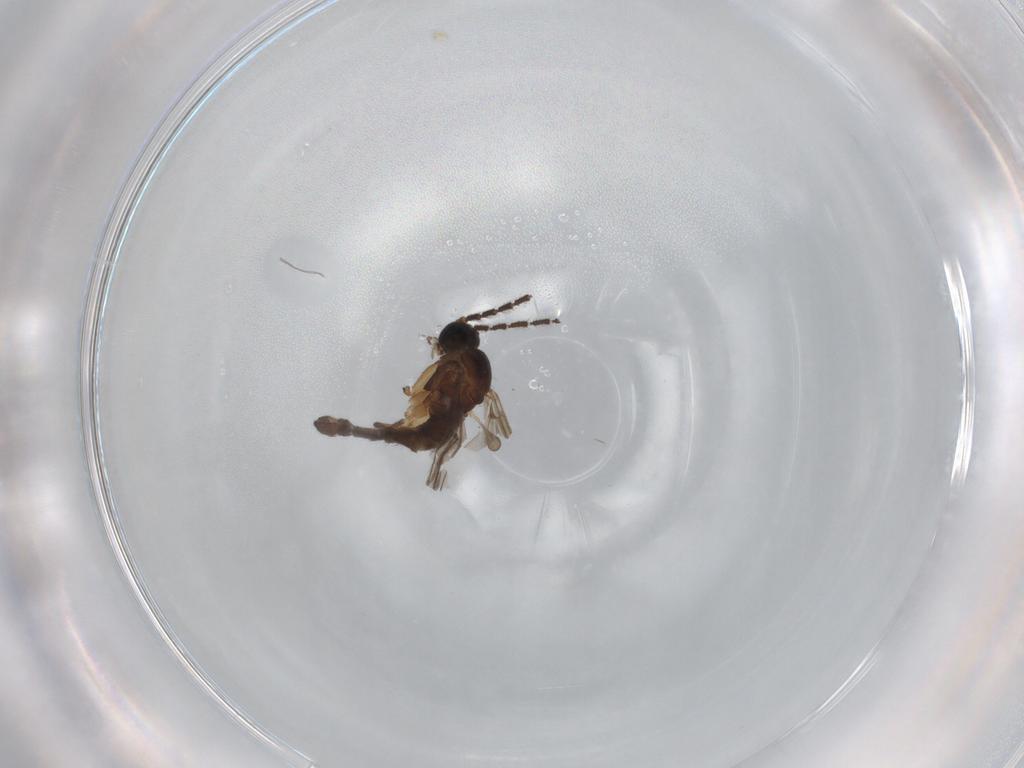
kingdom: Animalia
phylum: Arthropoda
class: Insecta
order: Diptera
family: Sciaridae
